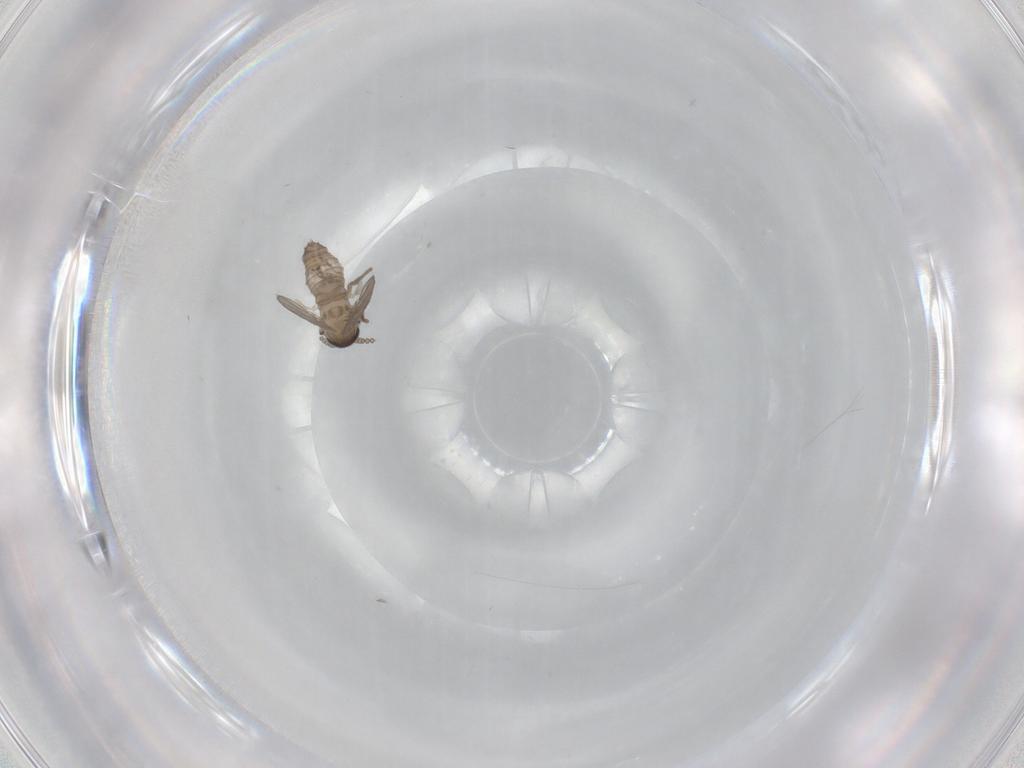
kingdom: Animalia
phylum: Arthropoda
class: Insecta
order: Diptera
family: Psychodidae
